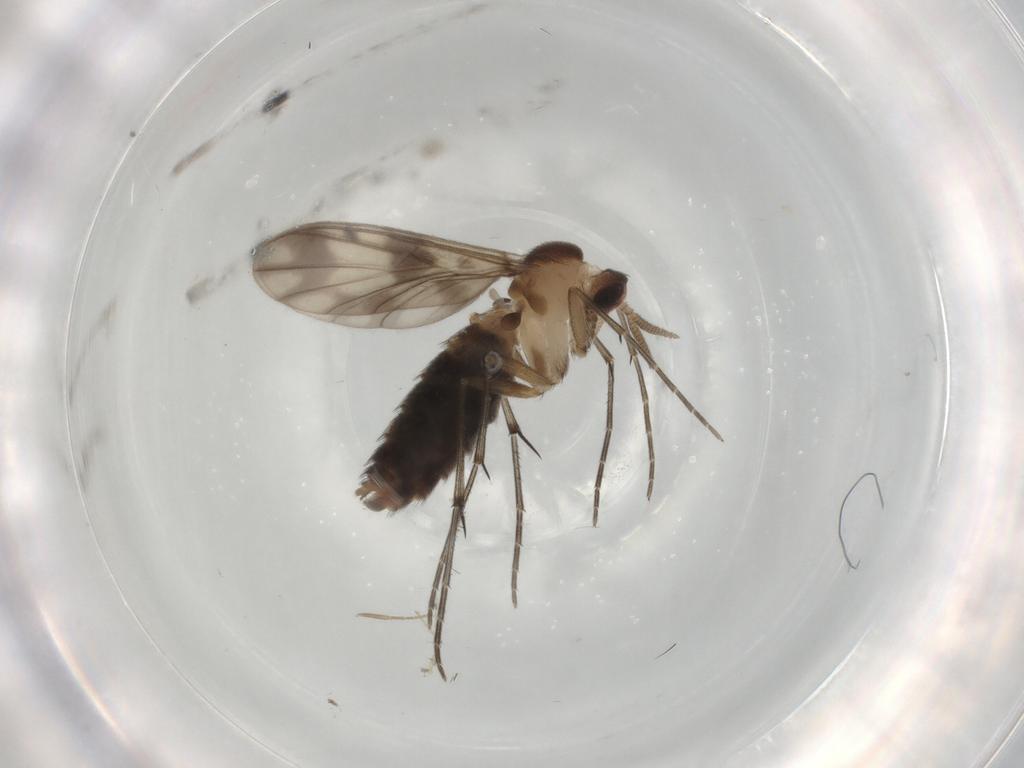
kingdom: Animalia
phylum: Arthropoda
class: Insecta
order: Diptera
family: Keroplatidae
